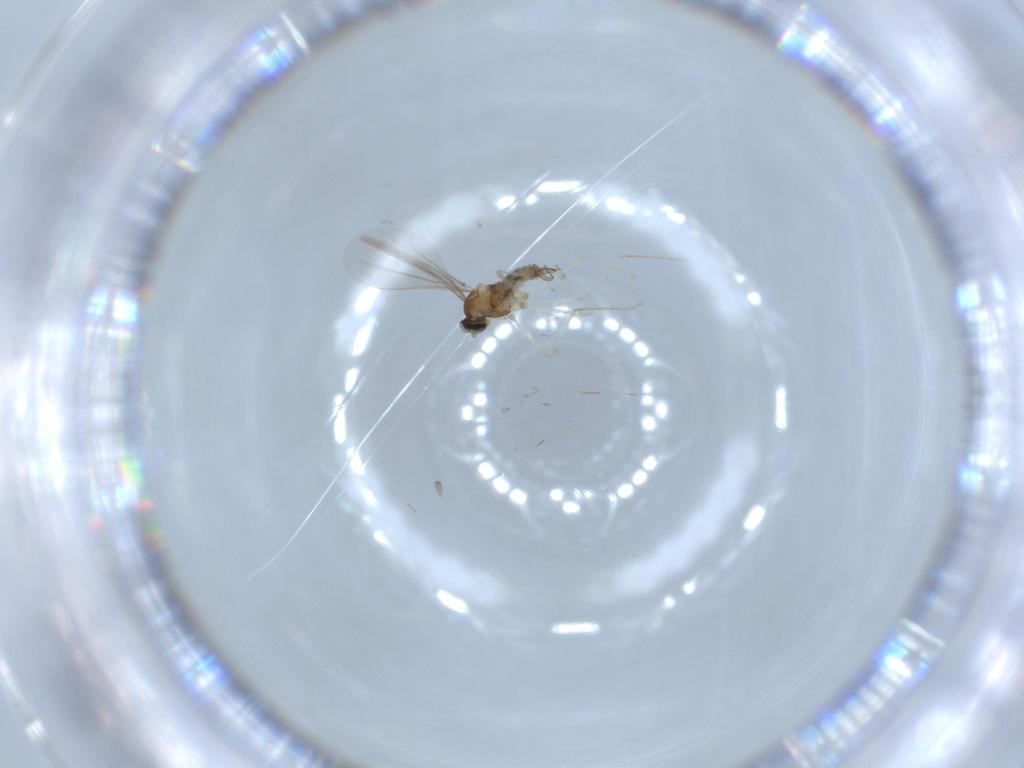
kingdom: Animalia
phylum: Arthropoda
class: Insecta
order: Diptera
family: Cecidomyiidae
